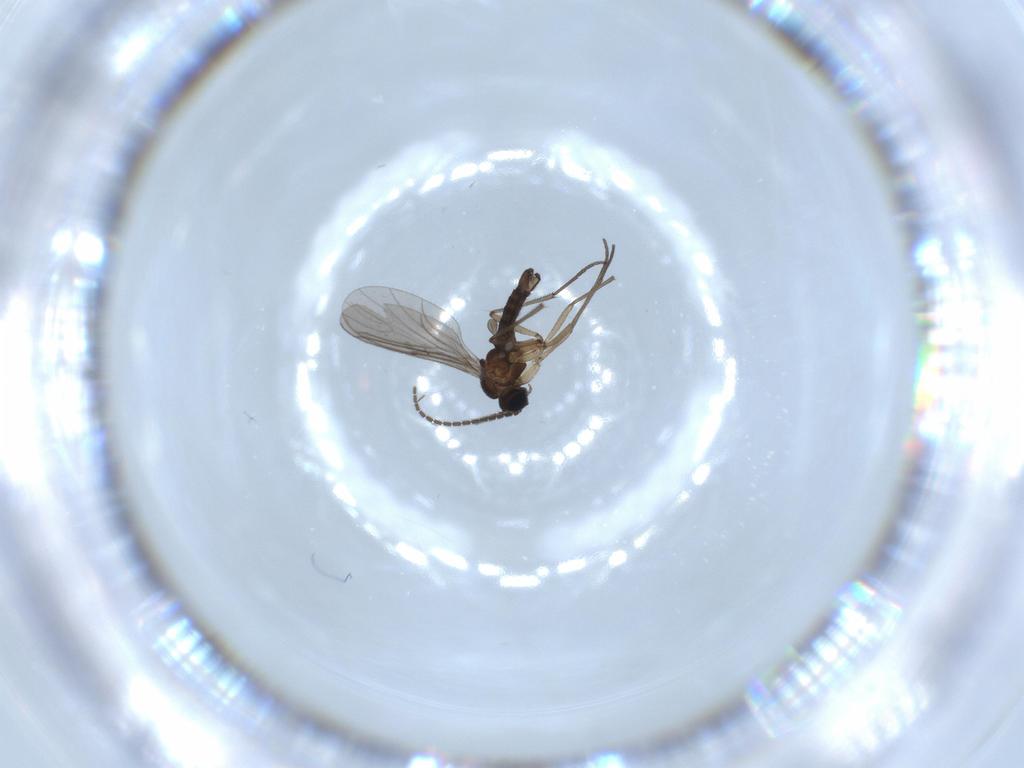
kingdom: Animalia
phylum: Arthropoda
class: Insecta
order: Diptera
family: Sciaridae
